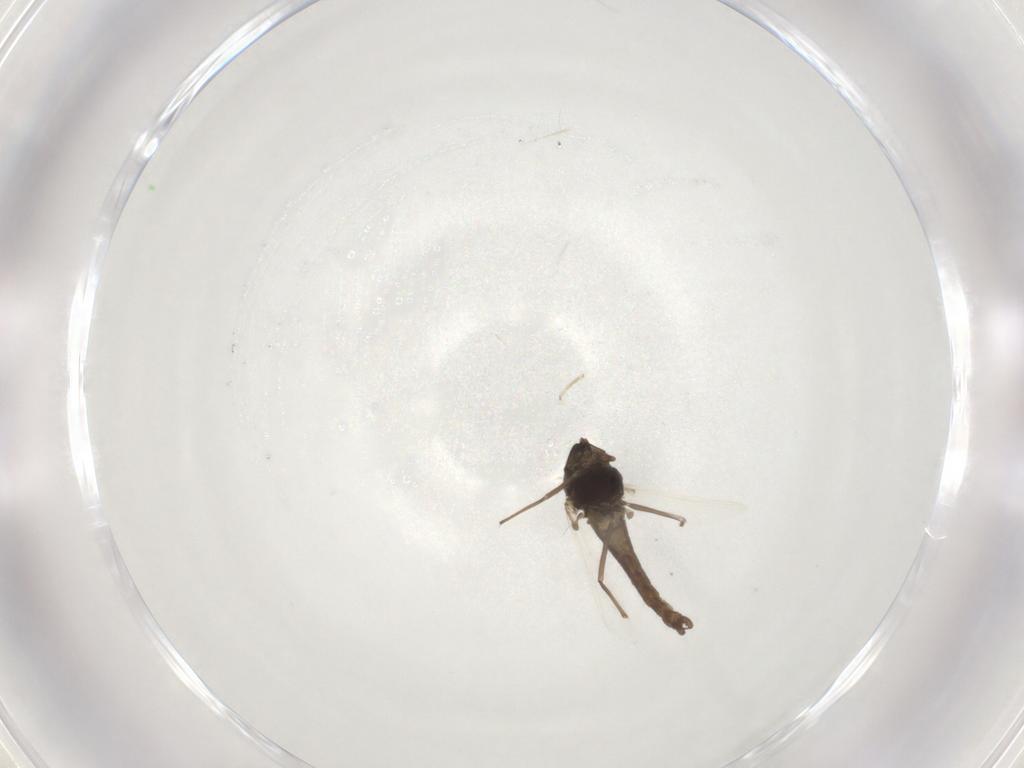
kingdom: Animalia
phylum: Arthropoda
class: Insecta
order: Diptera
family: Chironomidae
